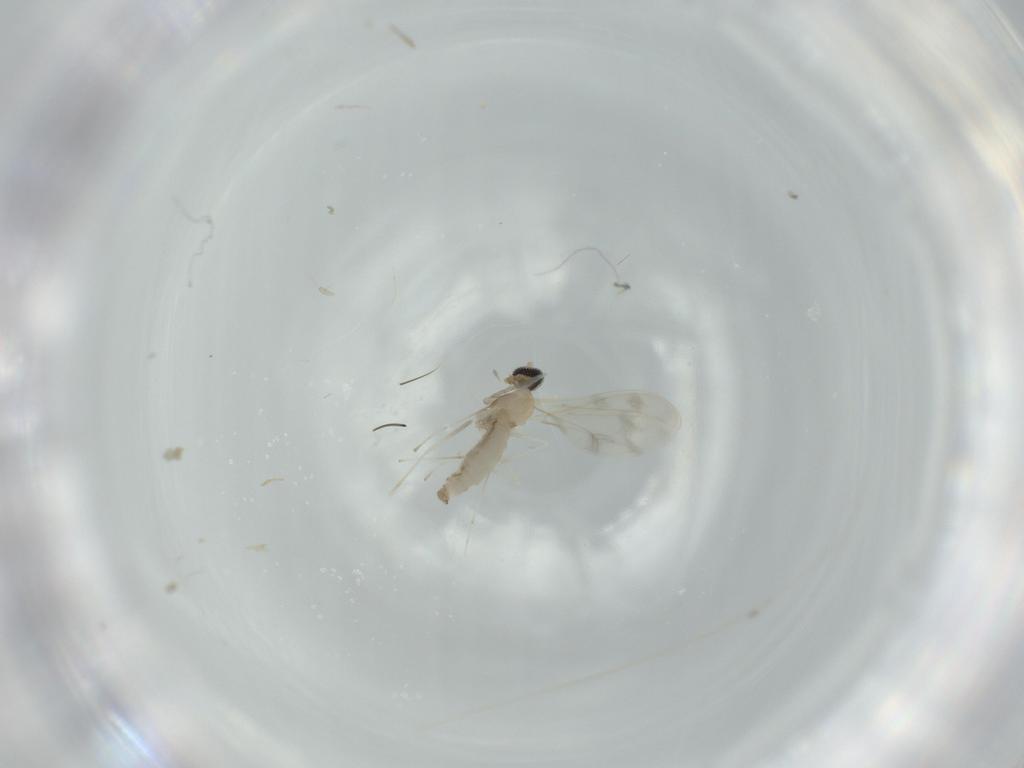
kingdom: Animalia
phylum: Arthropoda
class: Insecta
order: Diptera
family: Cecidomyiidae
